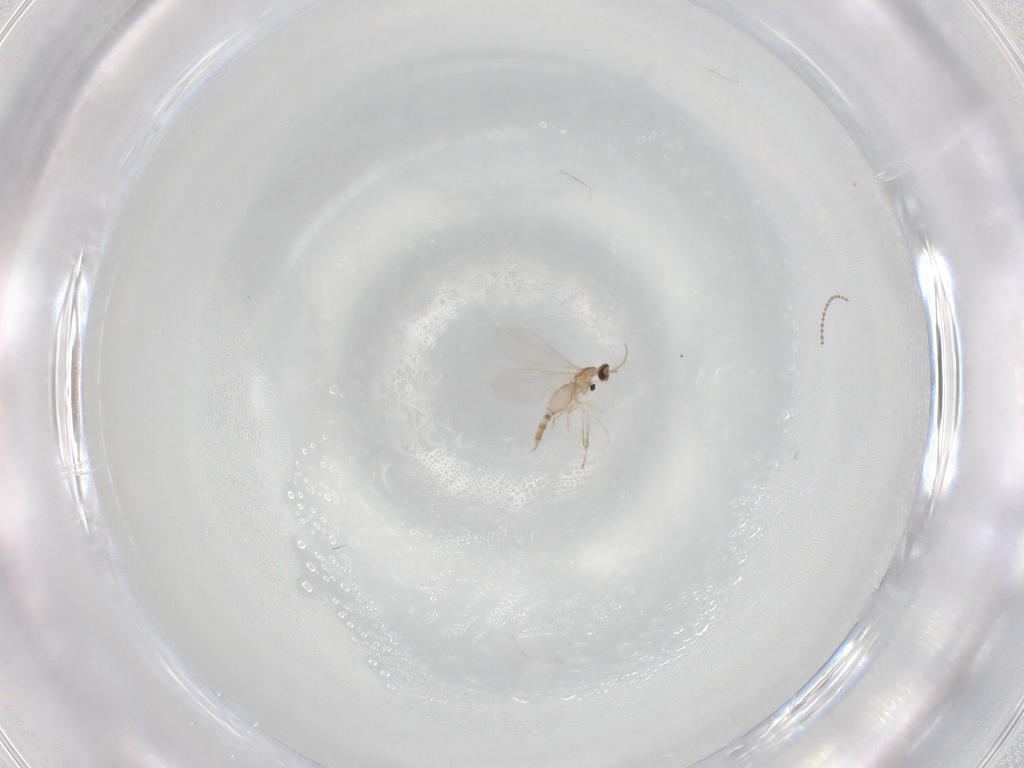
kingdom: Animalia
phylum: Arthropoda
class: Insecta
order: Diptera
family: Cecidomyiidae
